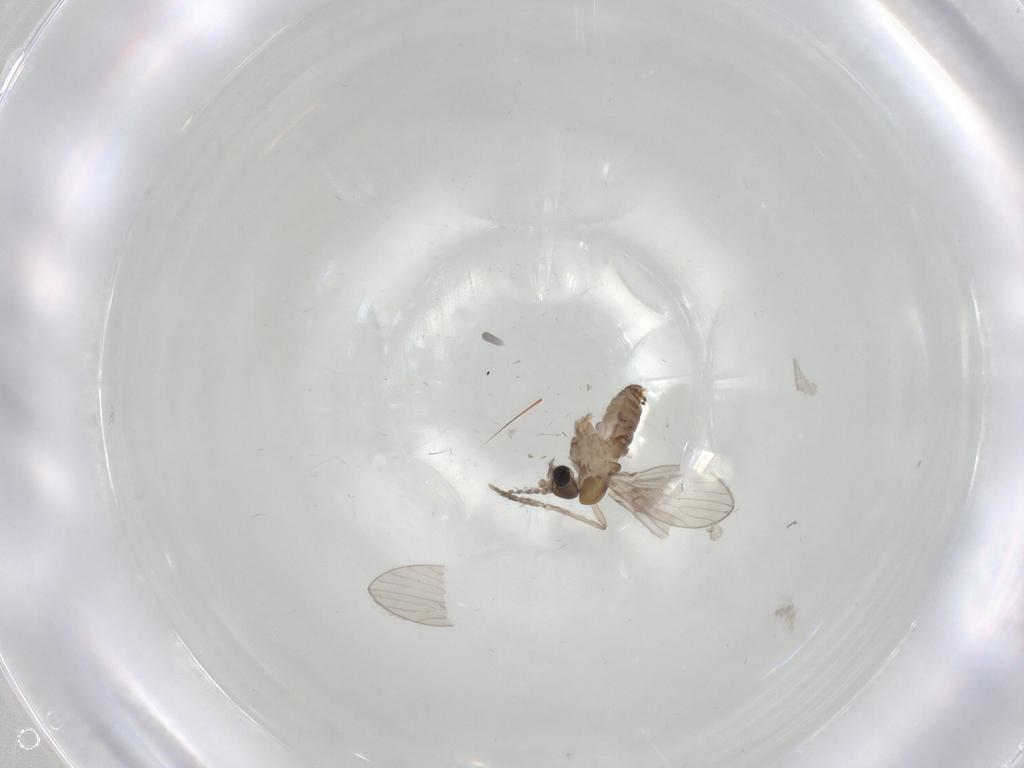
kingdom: Animalia
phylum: Arthropoda
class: Insecta
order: Diptera
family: Psychodidae
